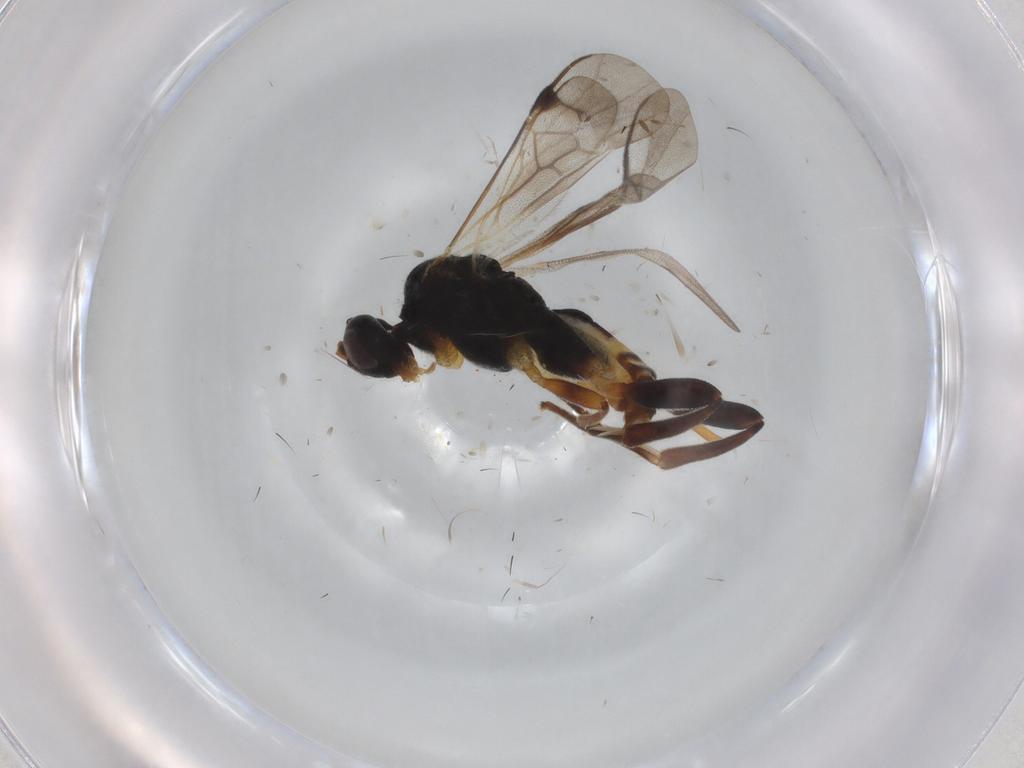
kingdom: Animalia
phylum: Arthropoda
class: Insecta
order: Hymenoptera
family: Braconidae
